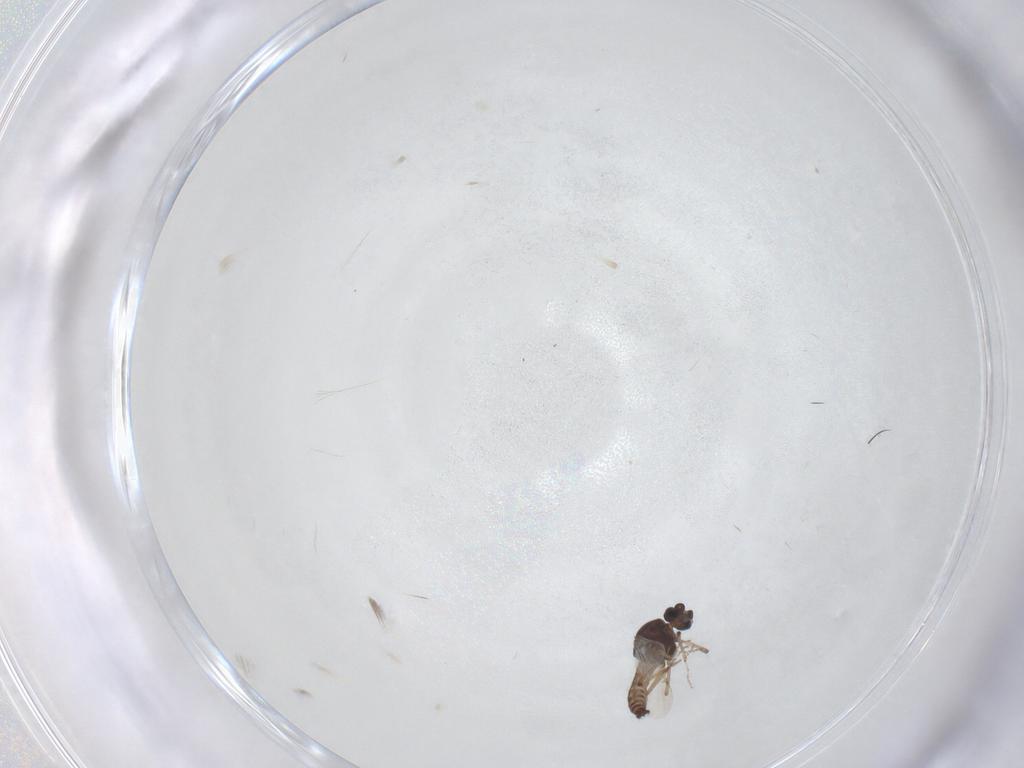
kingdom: Animalia
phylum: Arthropoda
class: Insecta
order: Diptera
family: Ceratopogonidae
